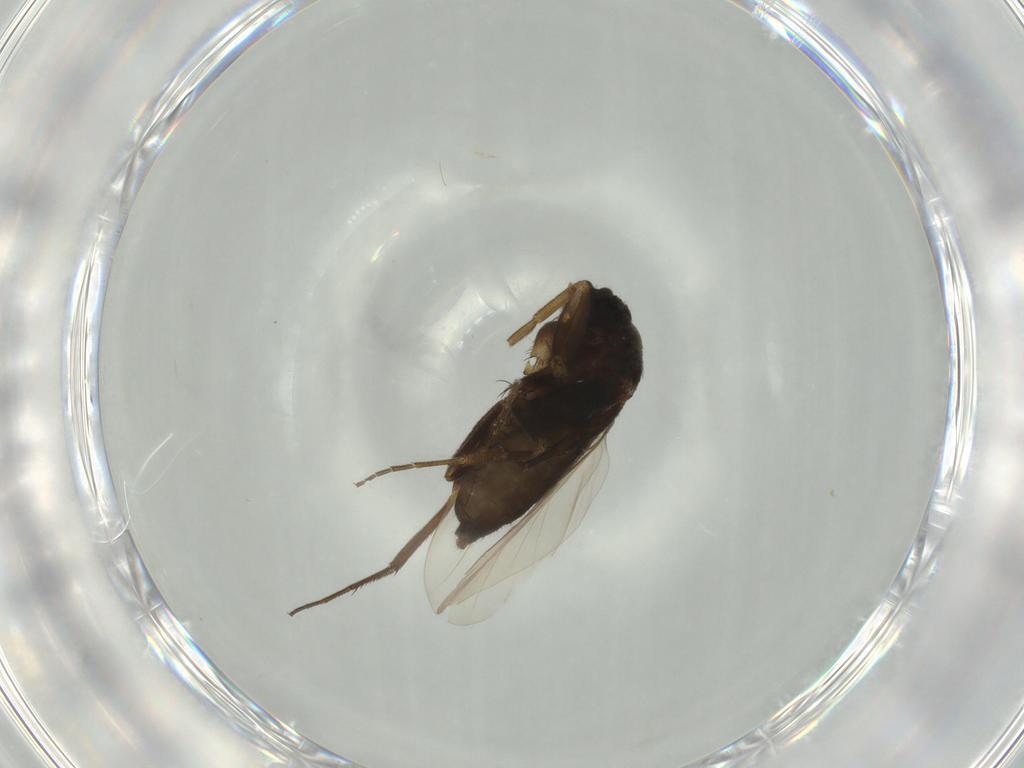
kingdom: Animalia
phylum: Arthropoda
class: Insecta
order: Diptera
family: Phoridae
